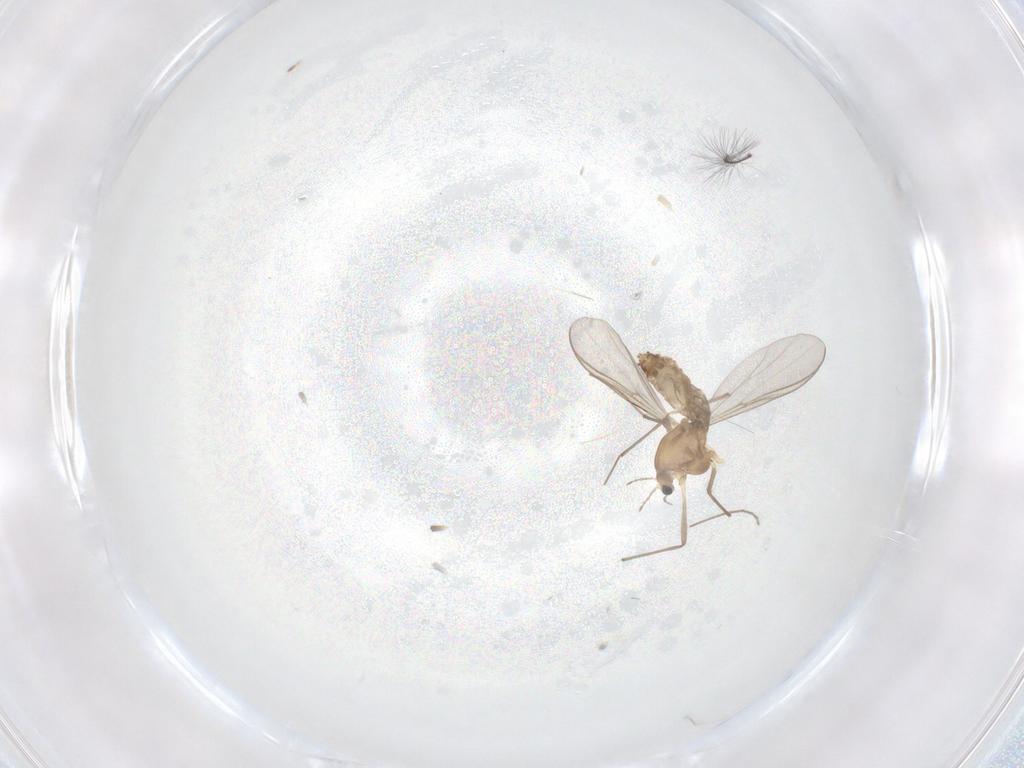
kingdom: Animalia
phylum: Arthropoda
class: Insecta
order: Diptera
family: Chironomidae
